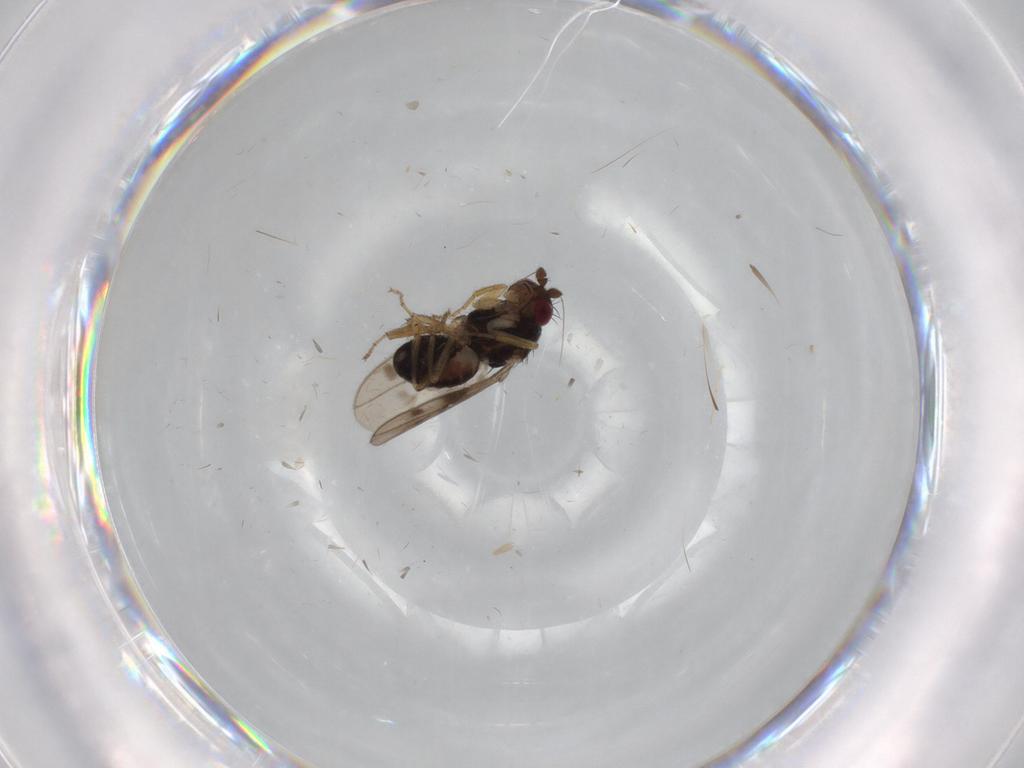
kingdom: Animalia
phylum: Arthropoda
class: Insecta
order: Diptera
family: Sphaeroceridae
